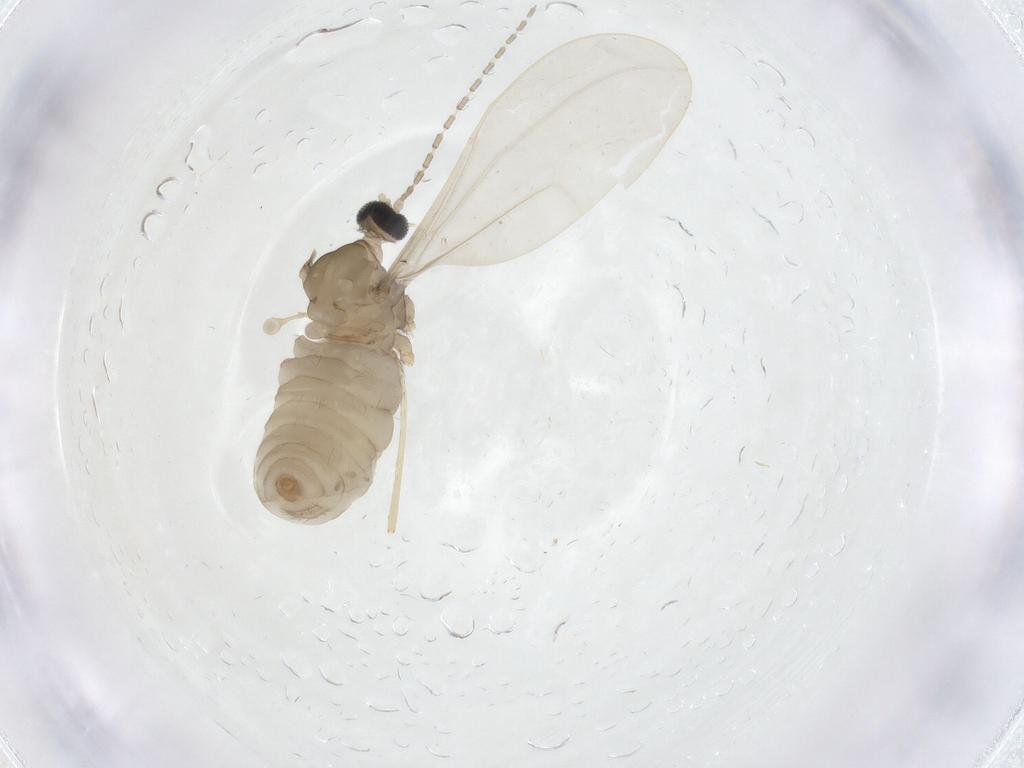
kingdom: Animalia
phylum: Arthropoda
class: Insecta
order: Diptera
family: Cecidomyiidae
